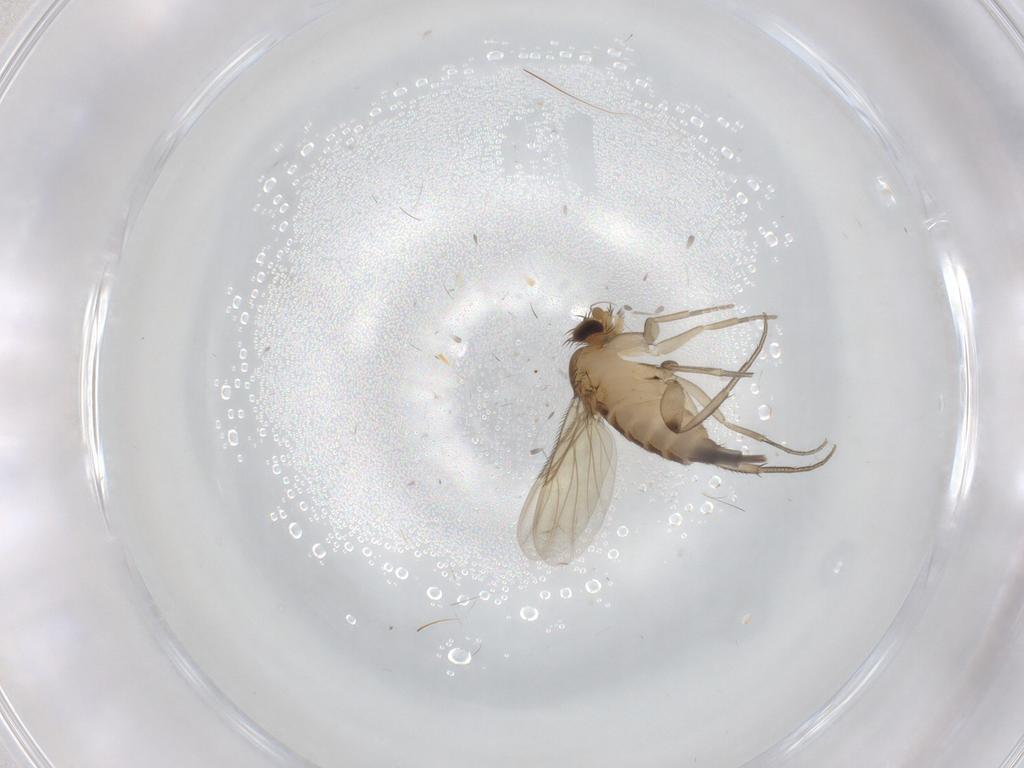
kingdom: Animalia
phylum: Arthropoda
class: Insecta
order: Diptera
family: Phoridae
